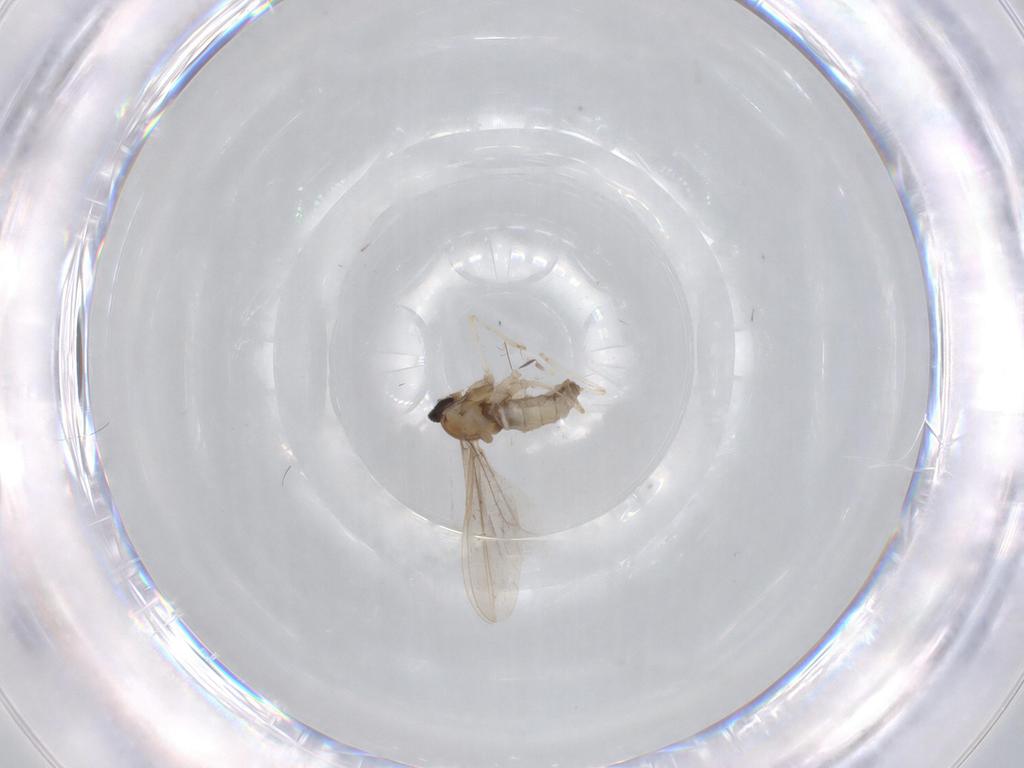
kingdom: Animalia
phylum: Arthropoda
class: Insecta
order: Diptera
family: Cecidomyiidae
